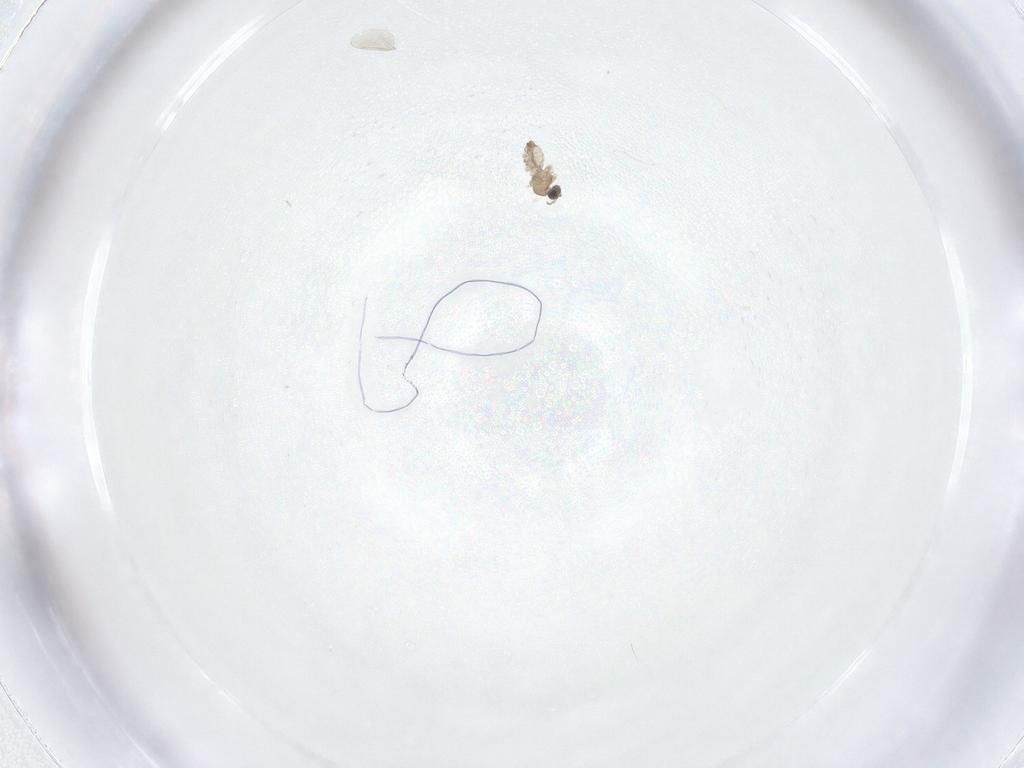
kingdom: Animalia
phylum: Arthropoda
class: Insecta
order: Diptera
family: Cecidomyiidae
